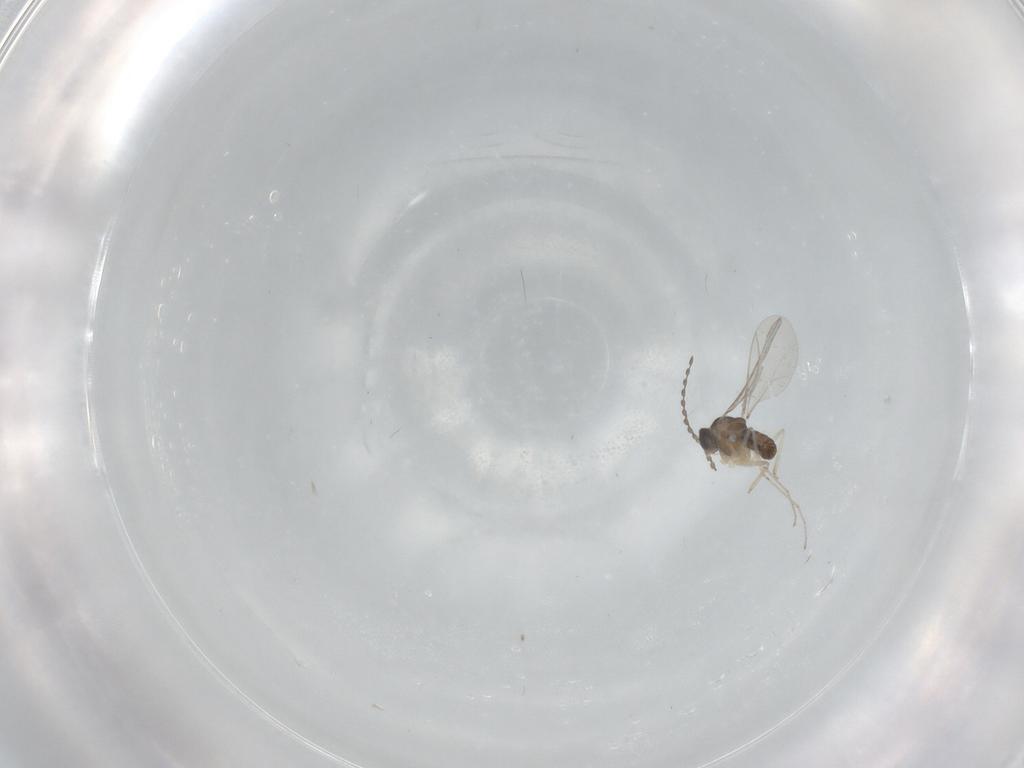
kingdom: Animalia
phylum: Arthropoda
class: Insecta
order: Diptera
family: Cecidomyiidae
